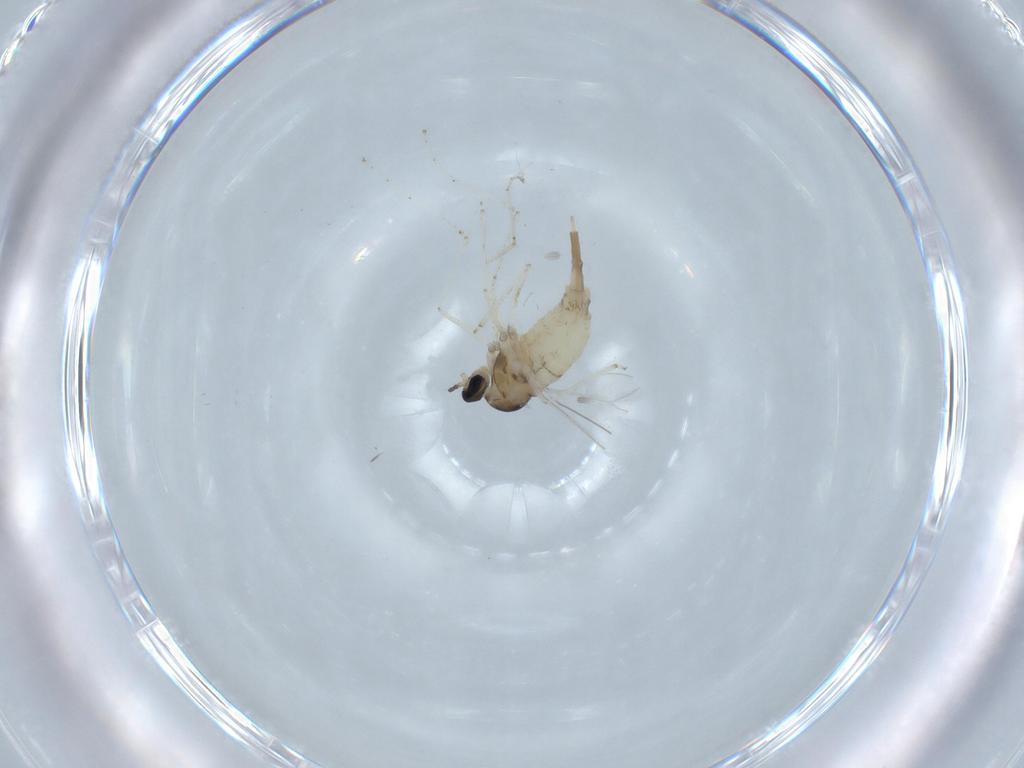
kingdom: Animalia
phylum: Arthropoda
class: Insecta
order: Diptera
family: Cecidomyiidae
